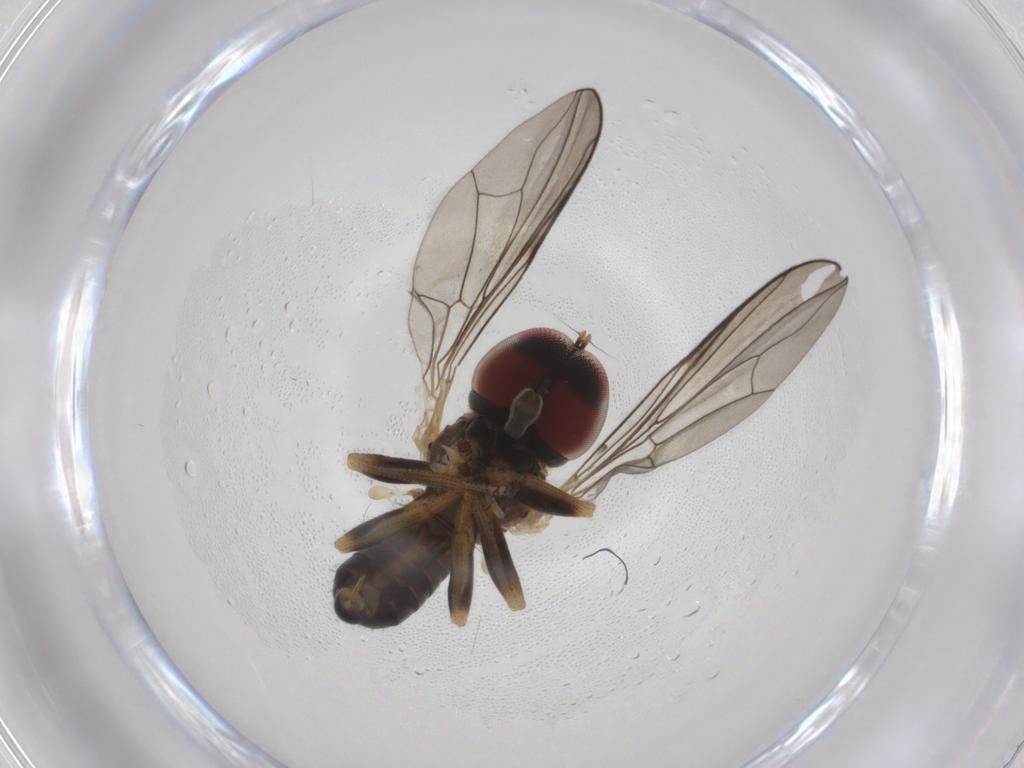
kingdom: Animalia
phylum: Arthropoda
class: Insecta
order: Diptera
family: Pipunculidae
